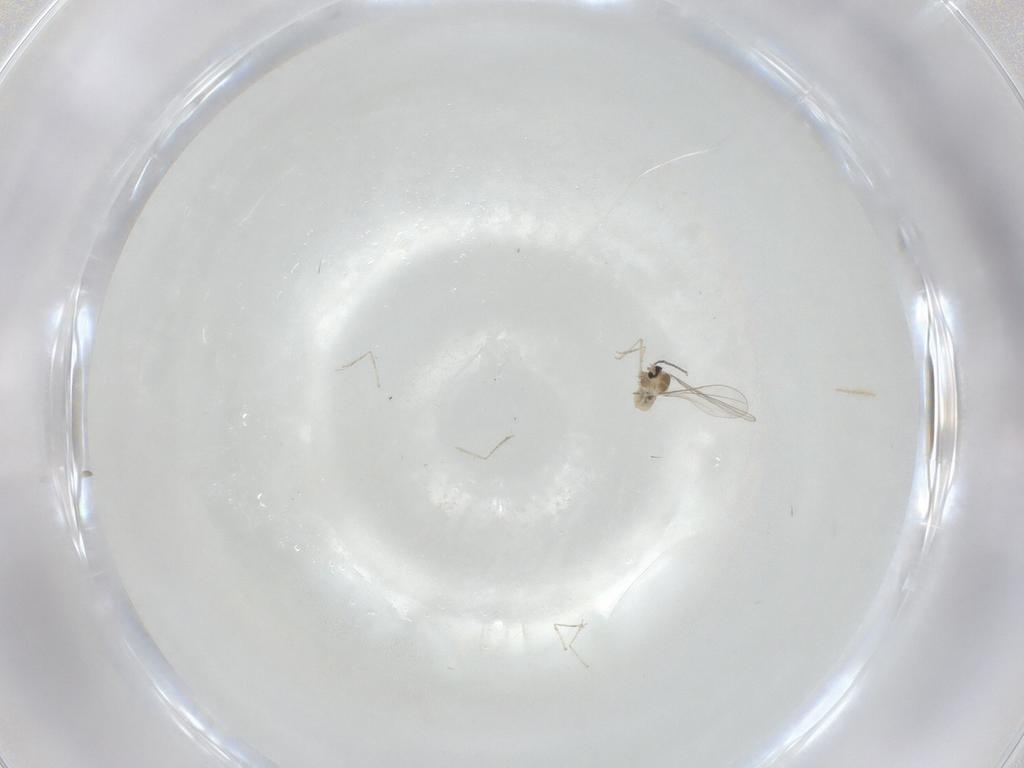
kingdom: Animalia
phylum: Arthropoda
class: Insecta
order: Diptera
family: Cecidomyiidae
